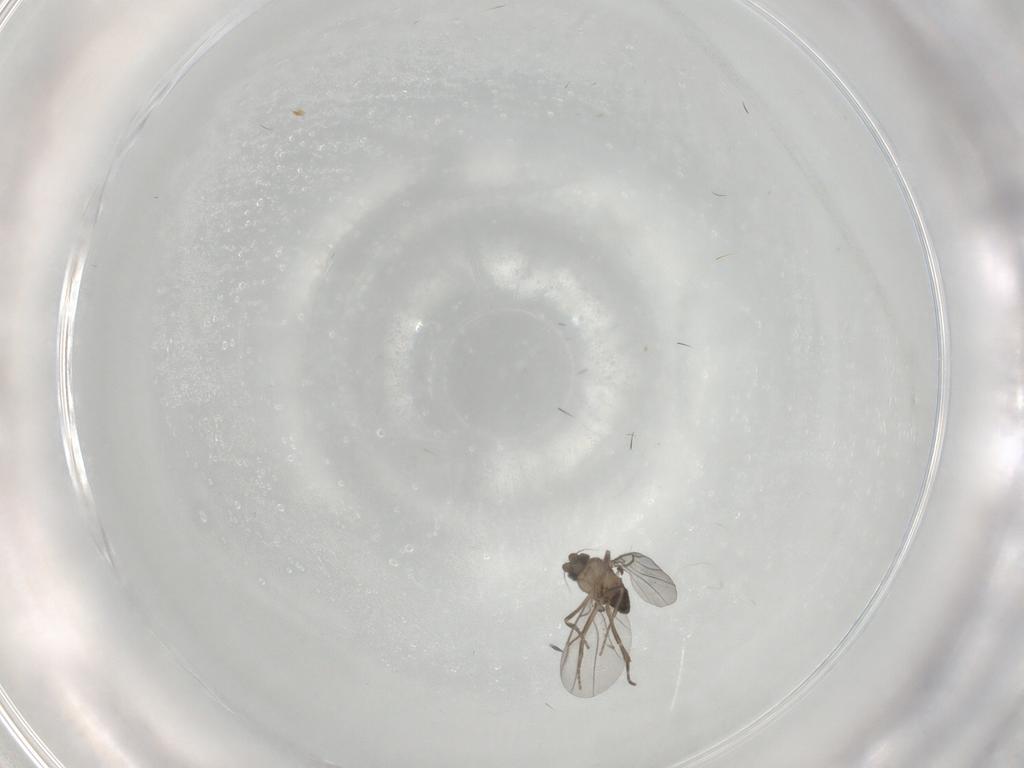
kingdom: Animalia
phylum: Arthropoda
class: Insecta
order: Diptera
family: Phoridae
